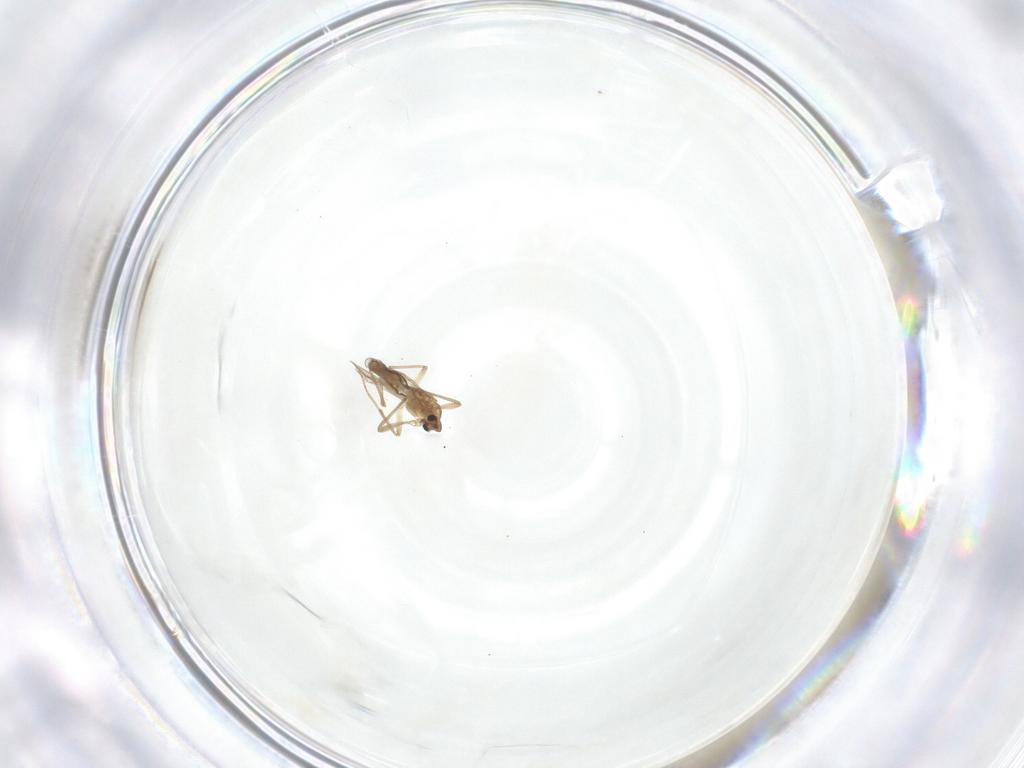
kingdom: Animalia
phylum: Arthropoda
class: Insecta
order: Diptera
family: Chironomidae
